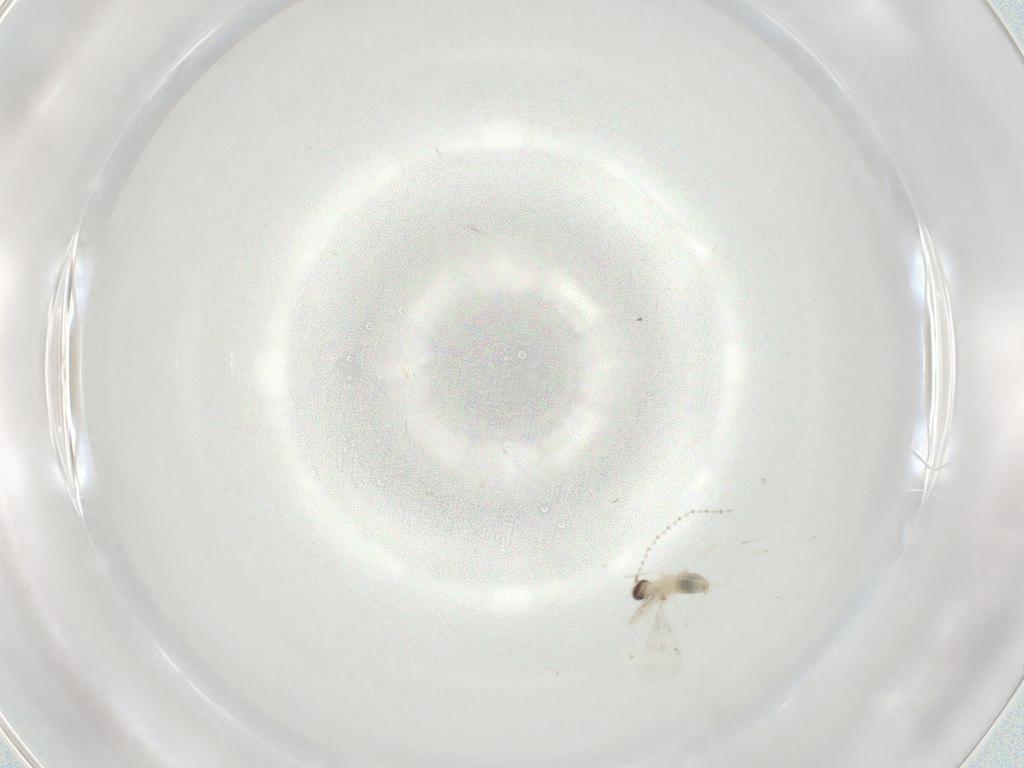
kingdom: Animalia
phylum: Arthropoda
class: Insecta
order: Diptera
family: Cecidomyiidae
